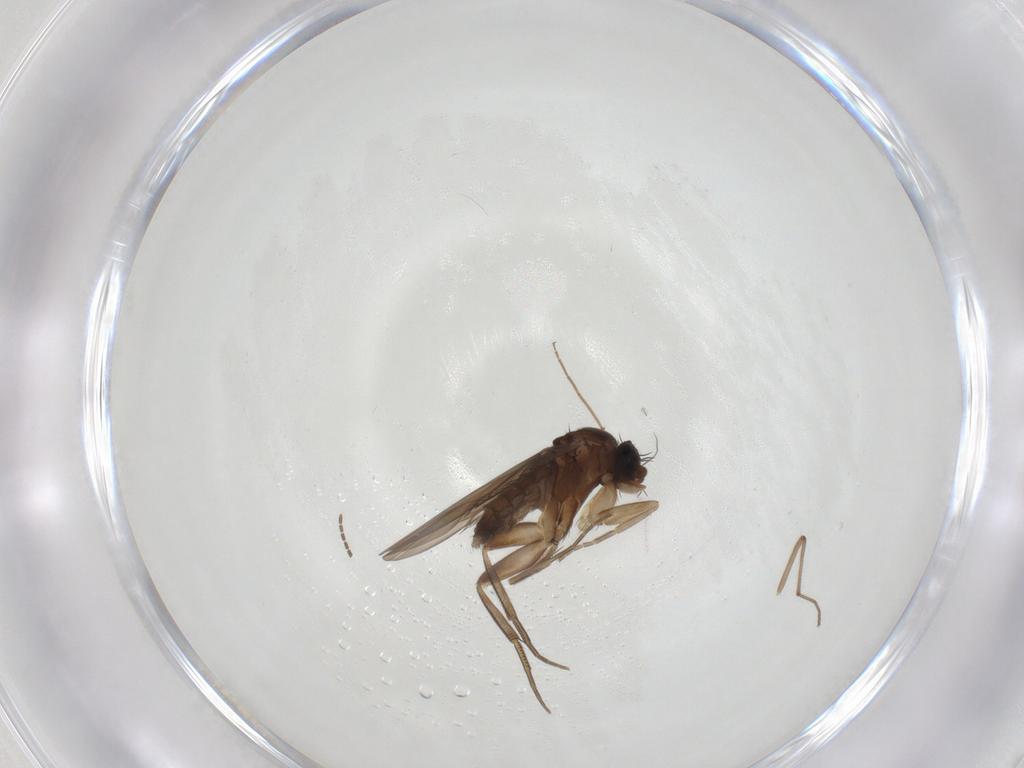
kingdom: Animalia
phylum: Arthropoda
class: Insecta
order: Diptera
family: Phoridae
